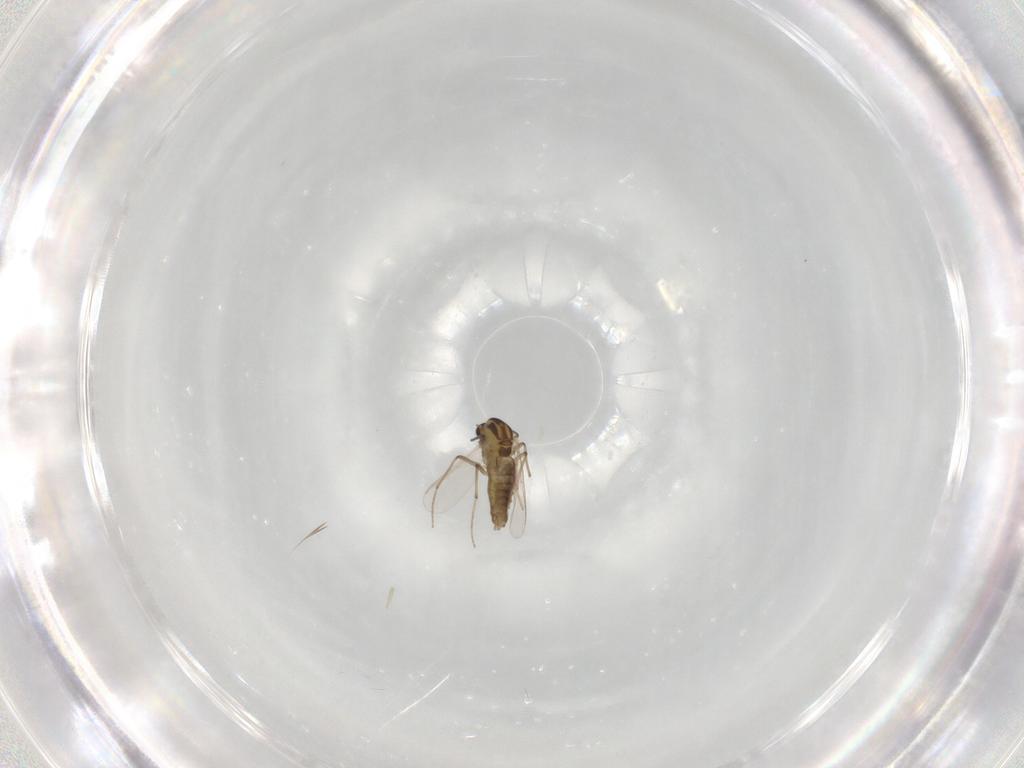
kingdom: Animalia
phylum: Arthropoda
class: Insecta
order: Diptera
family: Chironomidae
